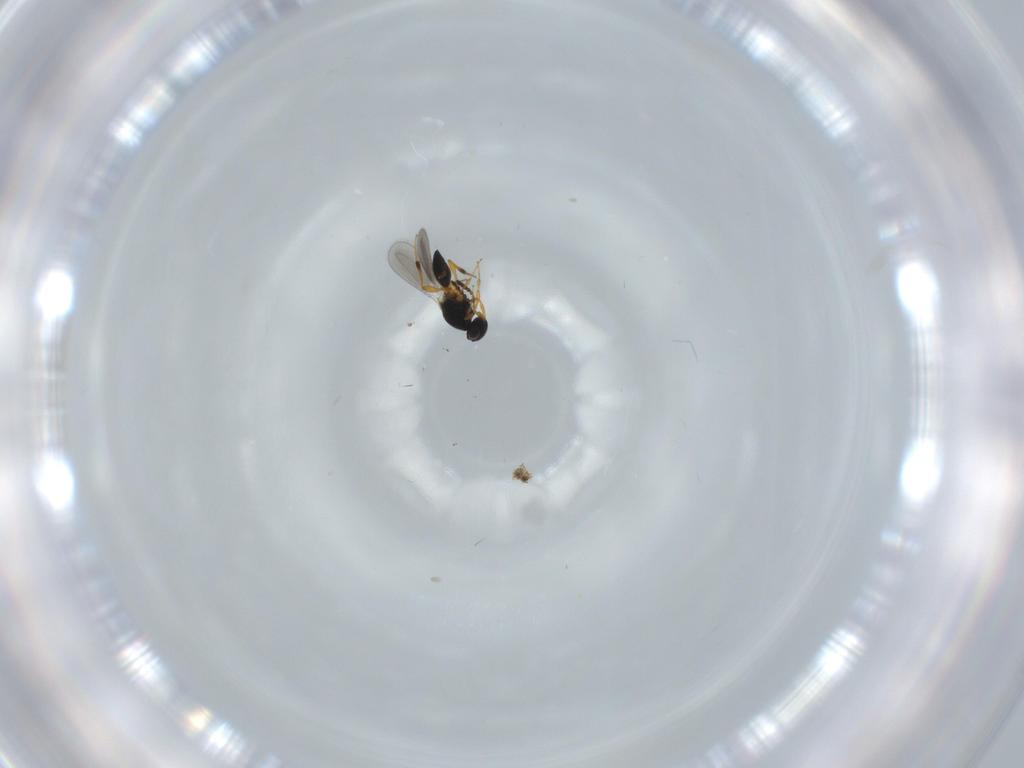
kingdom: Animalia
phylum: Arthropoda
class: Insecta
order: Hymenoptera
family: Platygastridae
